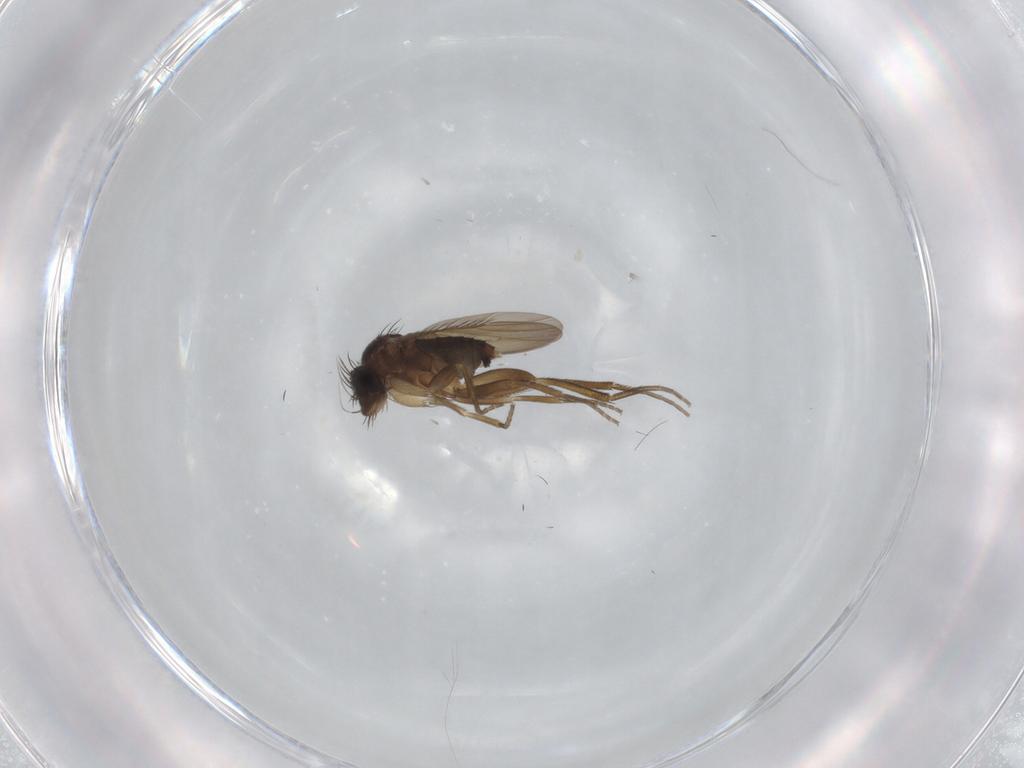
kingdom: Animalia
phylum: Arthropoda
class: Insecta
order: Diptera
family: Phoridae
